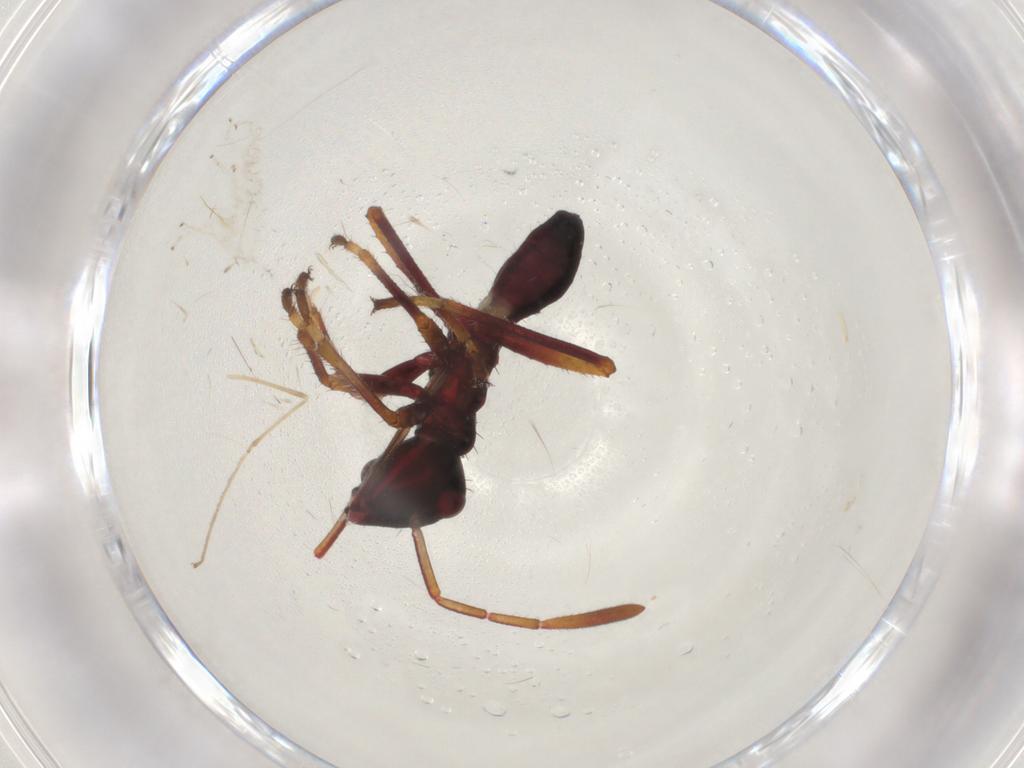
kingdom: Animalia
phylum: Arthropoda
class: Insecta
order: Hemiptera
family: Alydidae
